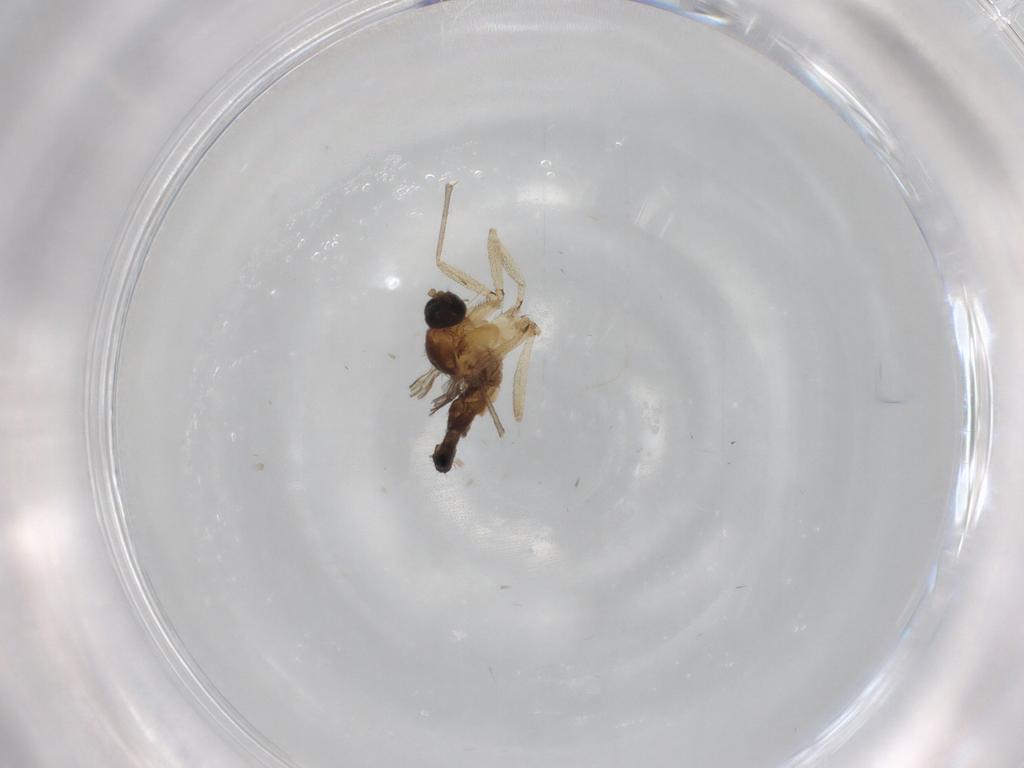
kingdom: Animalia
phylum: Arthropoda
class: Insecta
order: Diptera
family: Sciaridae
